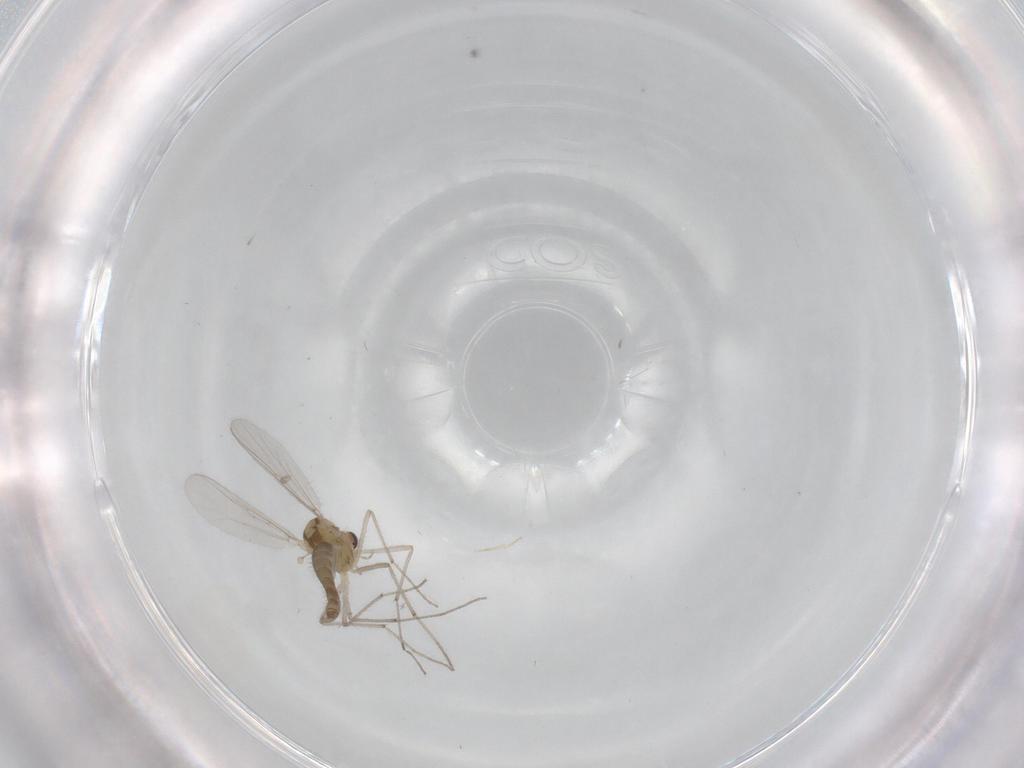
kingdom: Animalia
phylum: Arthropoda
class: Insecta
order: Diptera
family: Chironomidae
